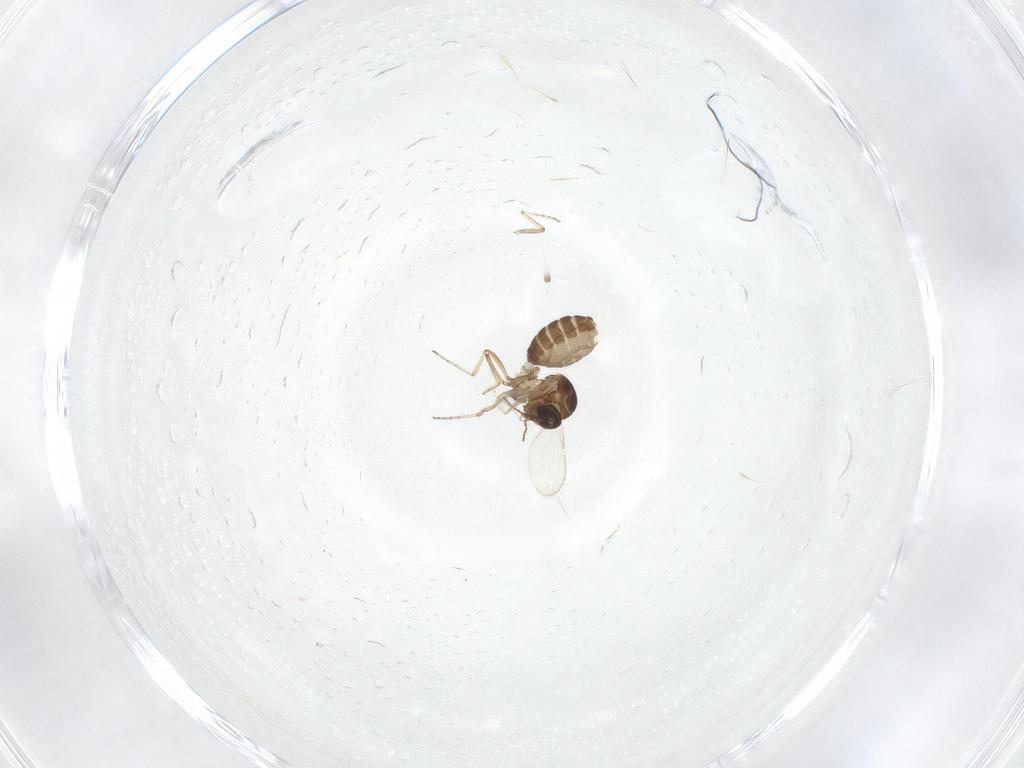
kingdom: Animalia
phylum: Arthropoda
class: Insecta
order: Diptera
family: Ceratopogonidae
